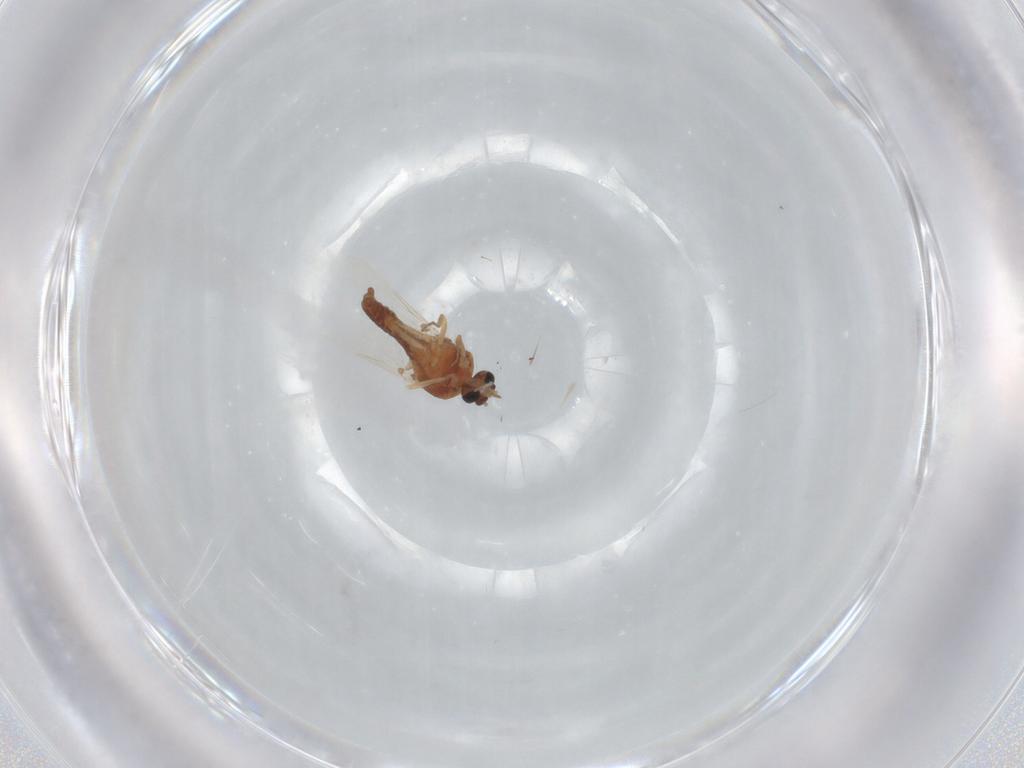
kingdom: Animalia
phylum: Arthropoda
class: Insecta
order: Diptera
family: Ceratopogonidae
